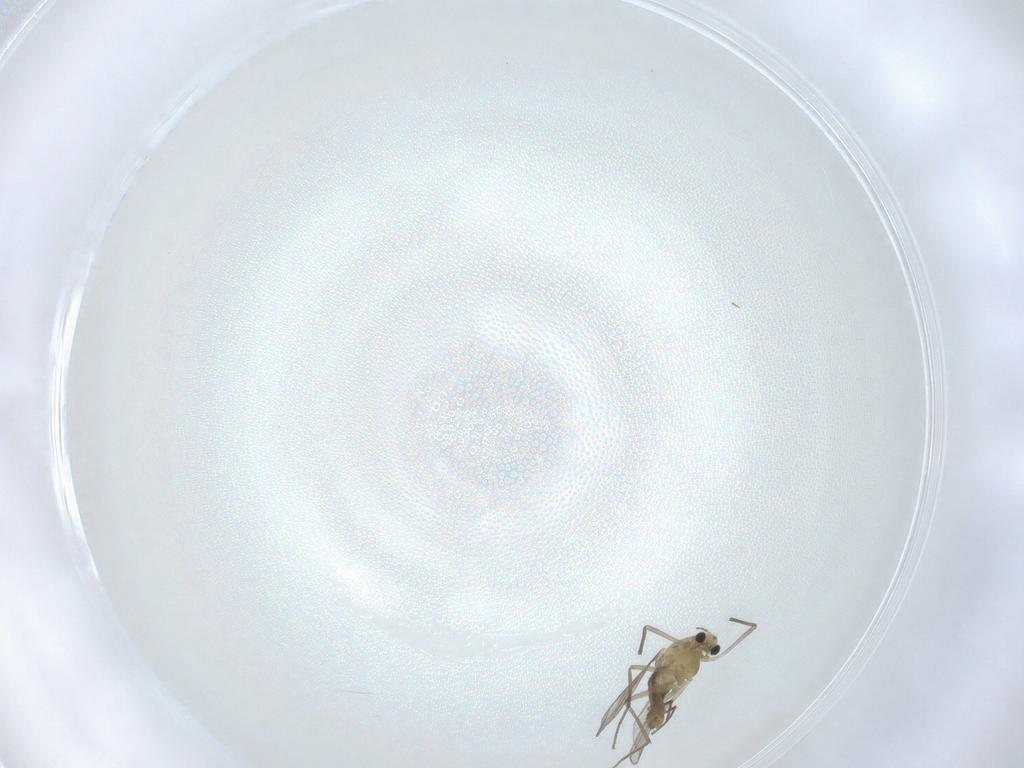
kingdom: Animalia
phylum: Arthropoda
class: Insecta
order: Diptera
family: Chironomidae
